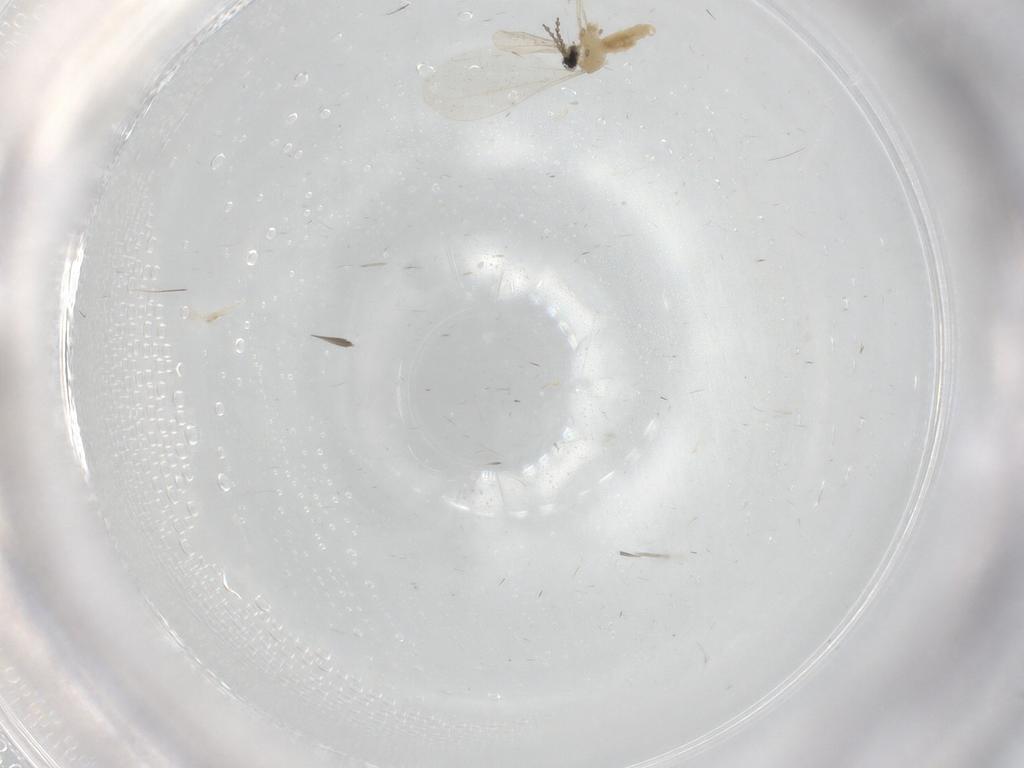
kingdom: Animalia
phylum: Arthropoda
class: Insecta
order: Diptera
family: Cecidomyiidae
